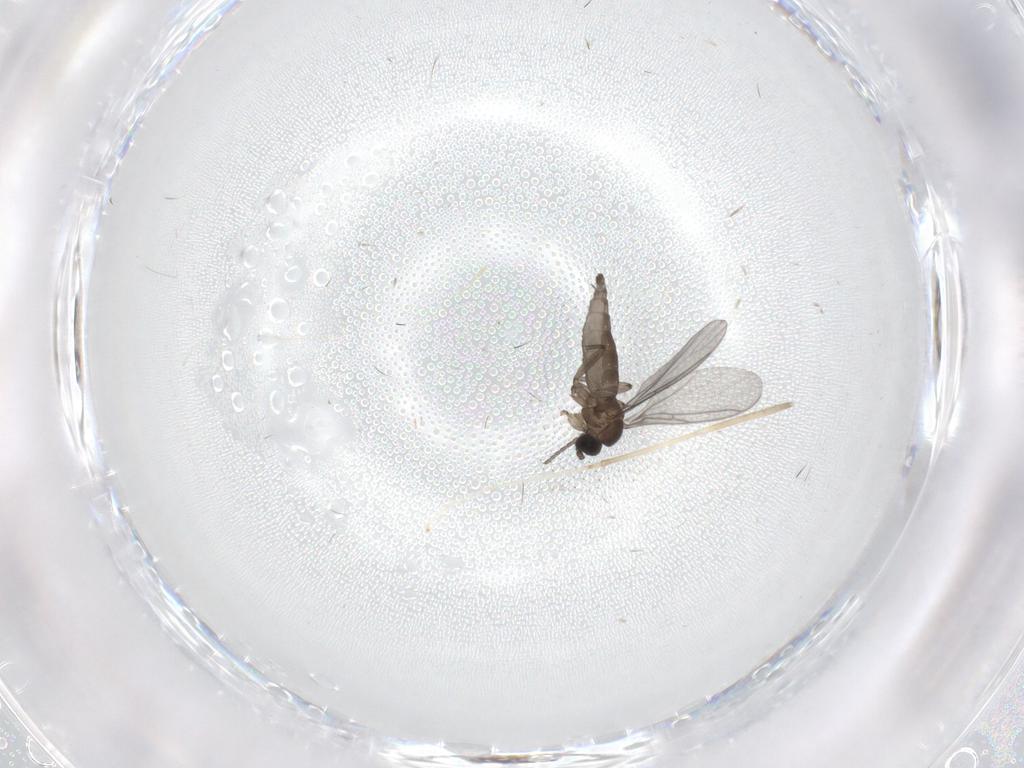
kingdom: Animalia
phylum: Arthropoda
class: Insecta
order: Diptera
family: Sciaridae
